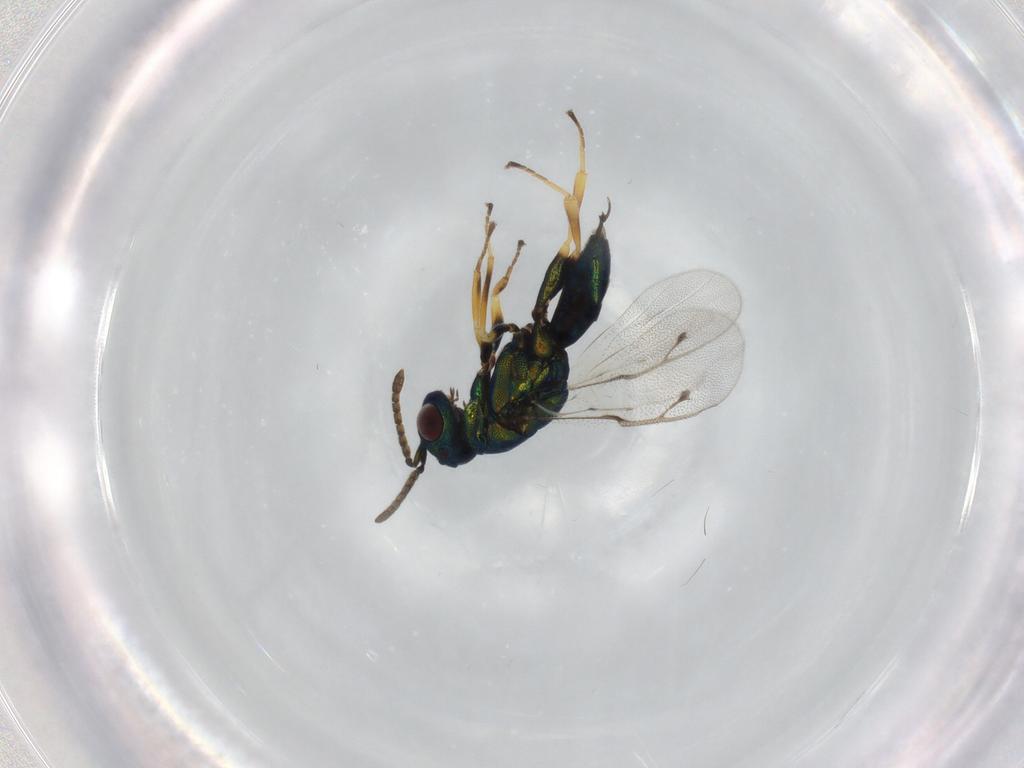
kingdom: Animalia
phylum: Arthropoda
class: Insecta
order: Hymenoptera
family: Pteromalidae
